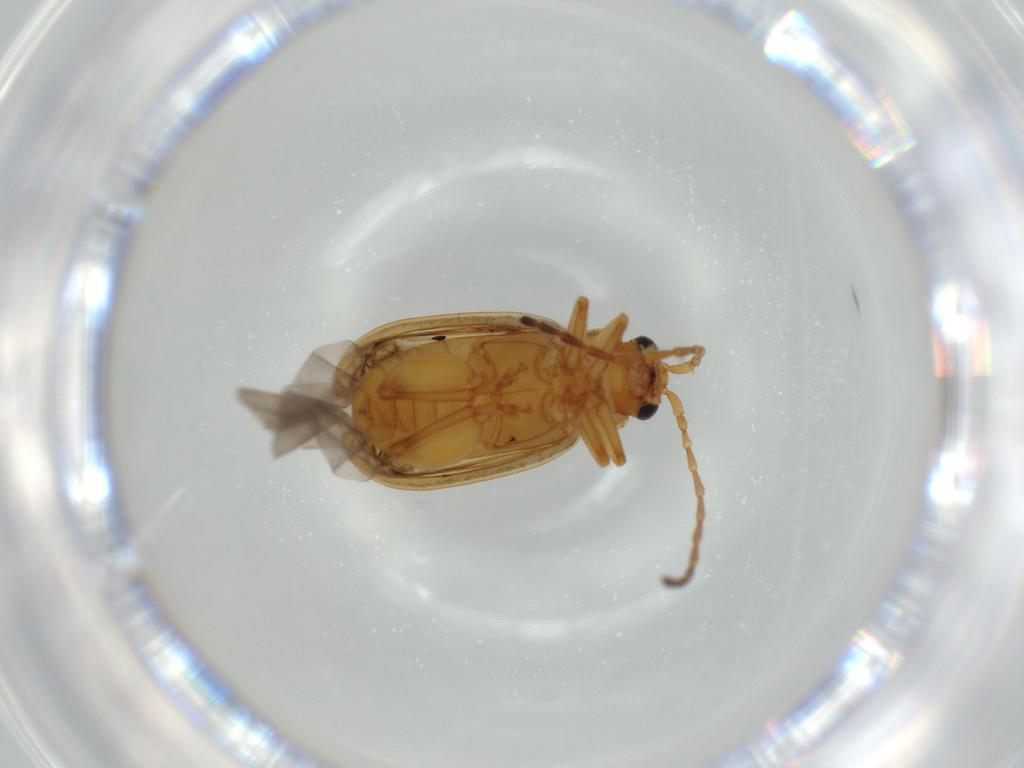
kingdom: Animalia
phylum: Arthropoda
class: Insecta
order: Coleoptera
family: Chrysomelidae
